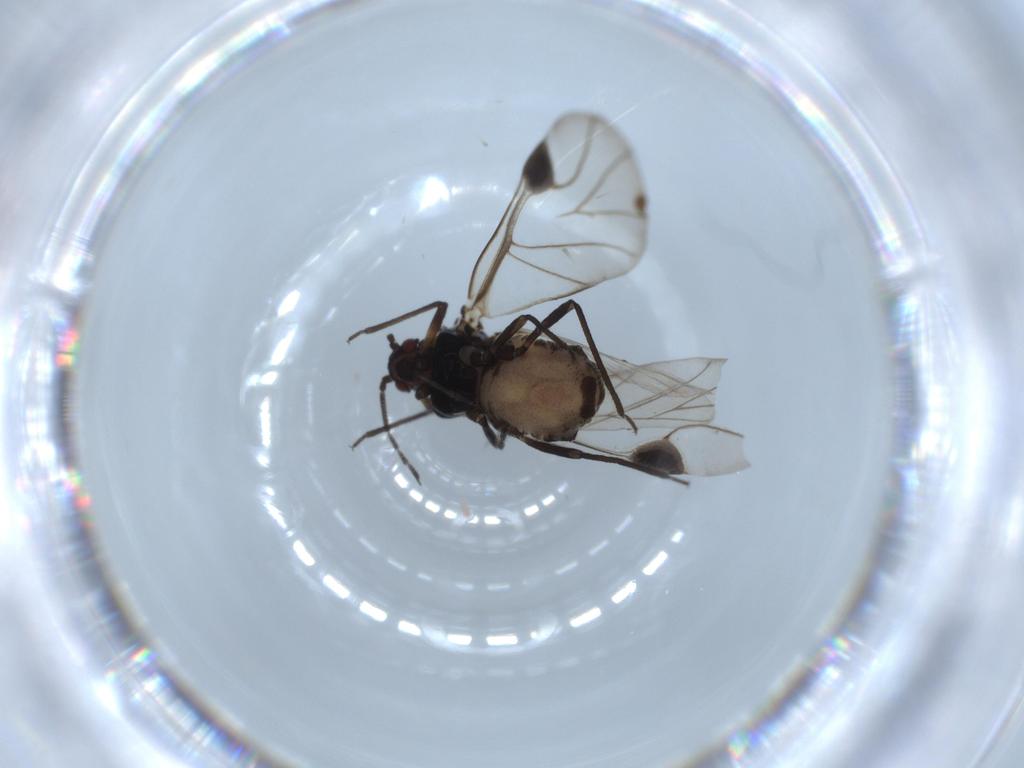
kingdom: Animalia
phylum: Arthropoda
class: Insecta
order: Hemiptera
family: Aphididae
